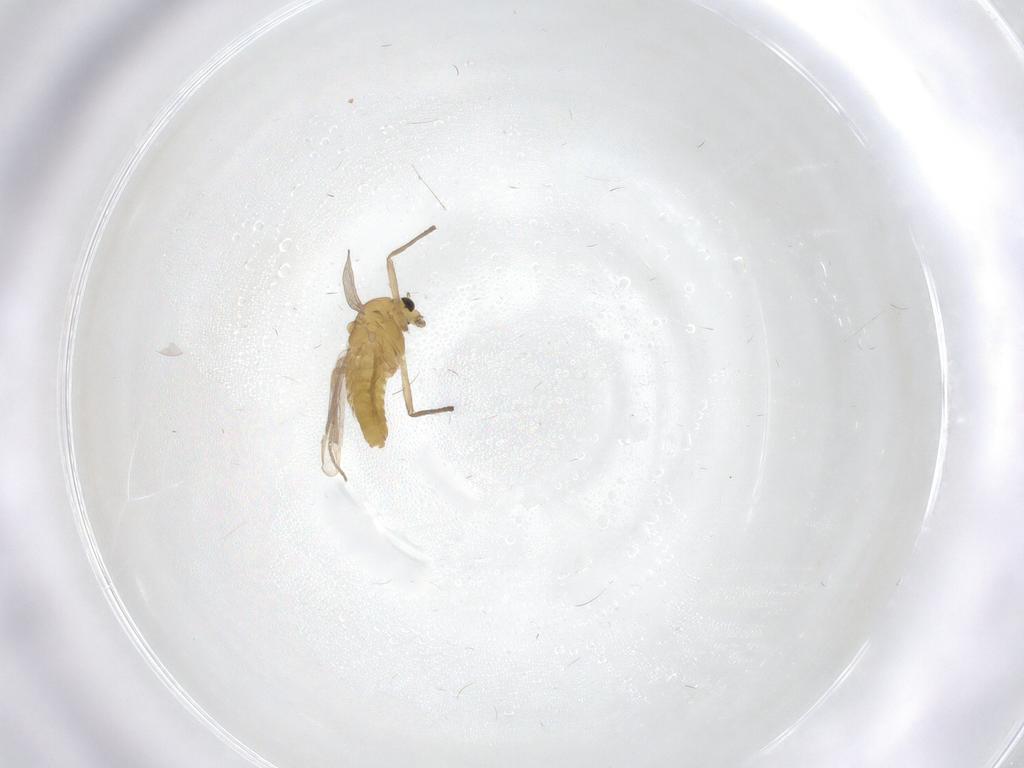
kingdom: Animalia
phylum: Arthropoda
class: Insecta
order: Diptera
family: Chironomidae
